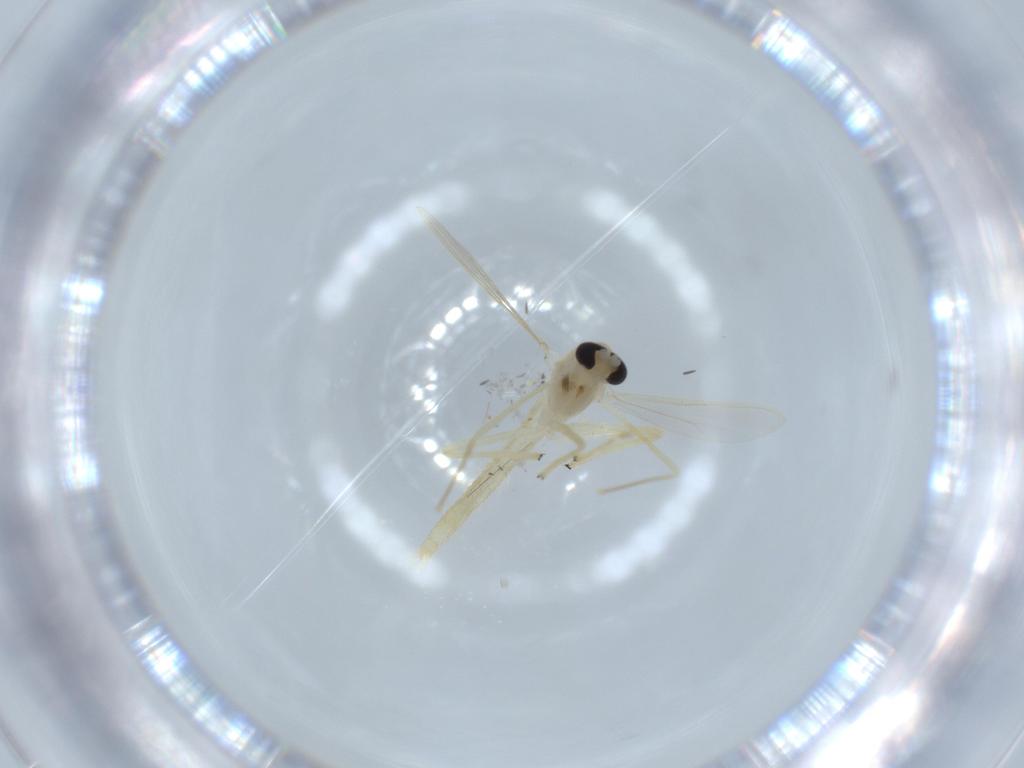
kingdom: Animalia
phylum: Arthropoda
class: Insecta
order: Diptera
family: Chironomidae
